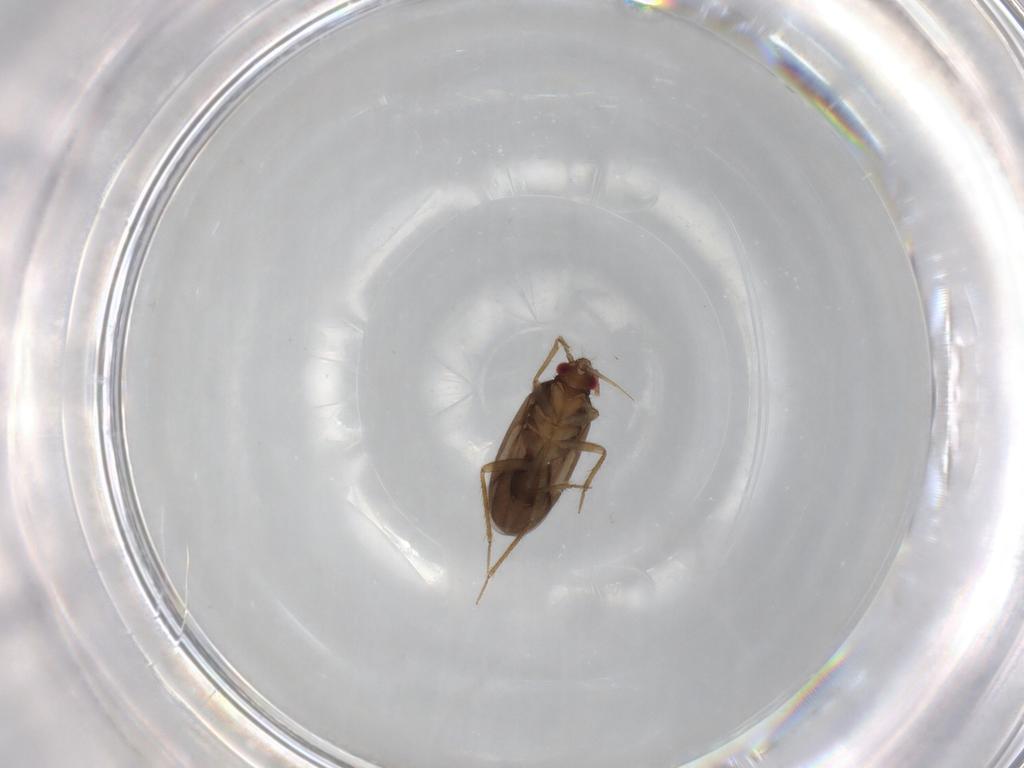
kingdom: Animalia
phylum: Arthropoda
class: Insecta
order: Hemiptera
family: Ceratocombidae
